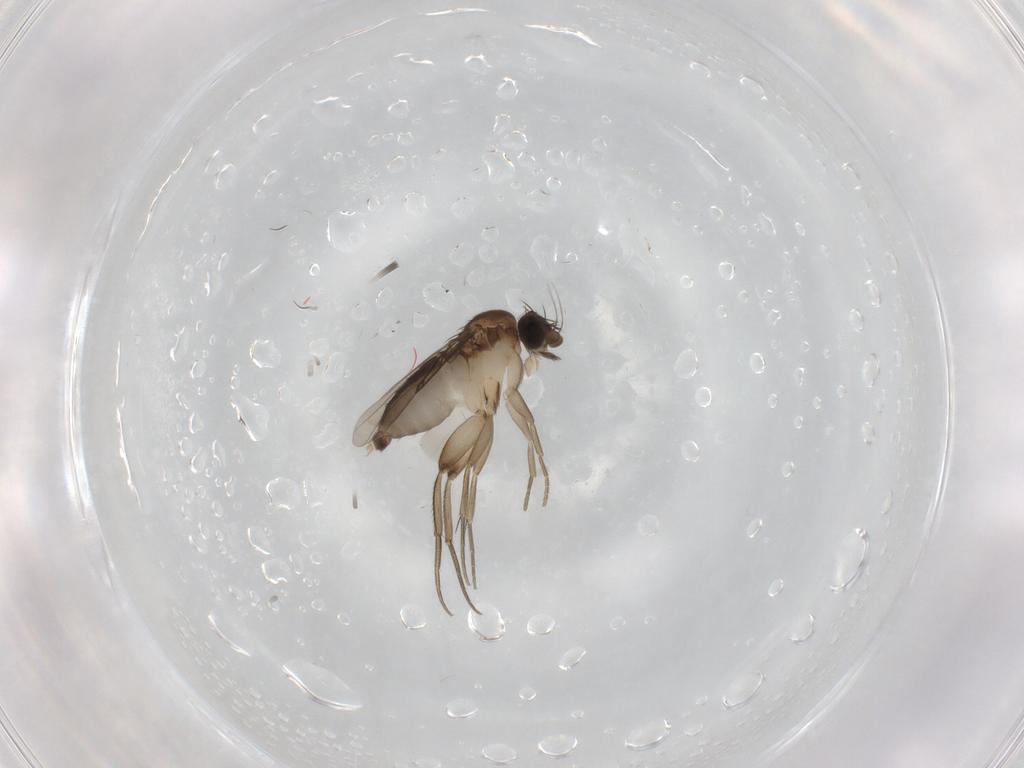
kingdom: Animalia
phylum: Arthropoda
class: Insecta
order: Diptera
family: Phoridae
